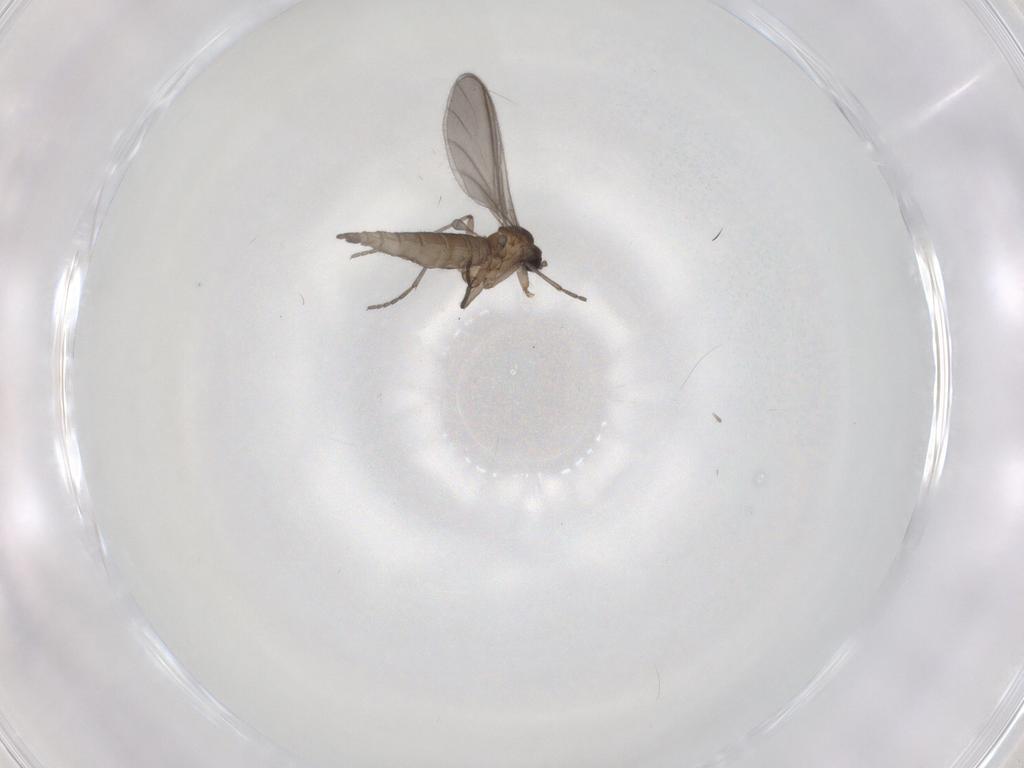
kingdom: Animalia
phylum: Arthropoda
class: Insecta
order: Diptera
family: Sciaridae
